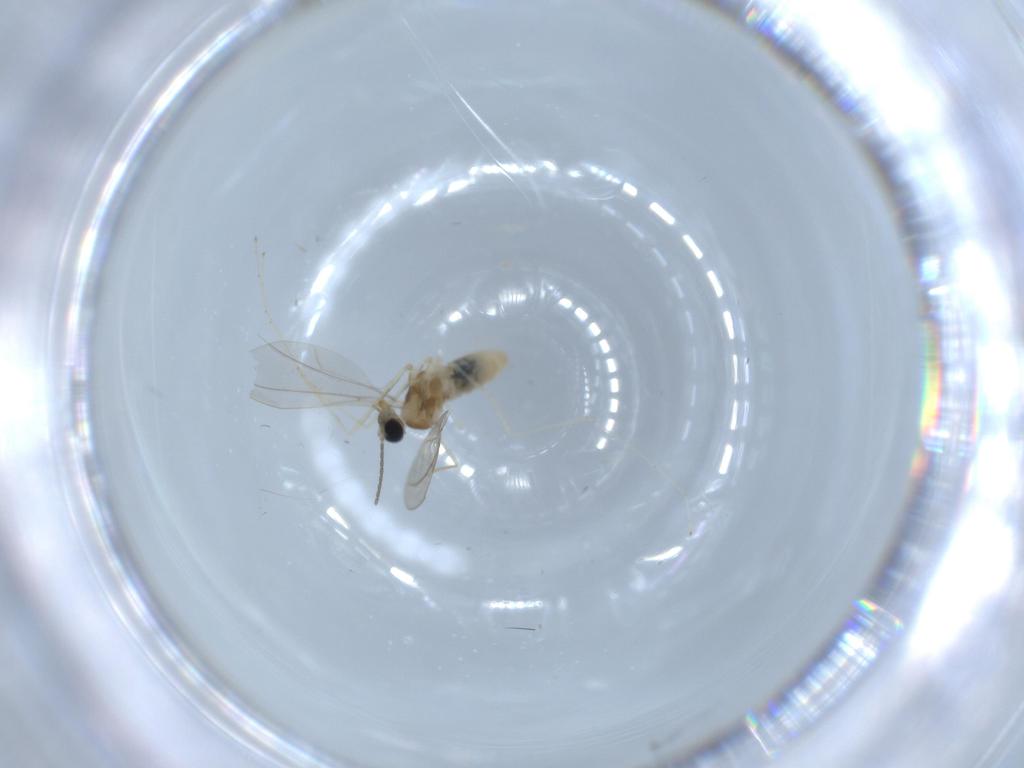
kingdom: Animalia
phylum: Arthropoda
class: Insecta
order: Diptera
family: Cecidomyiidae
